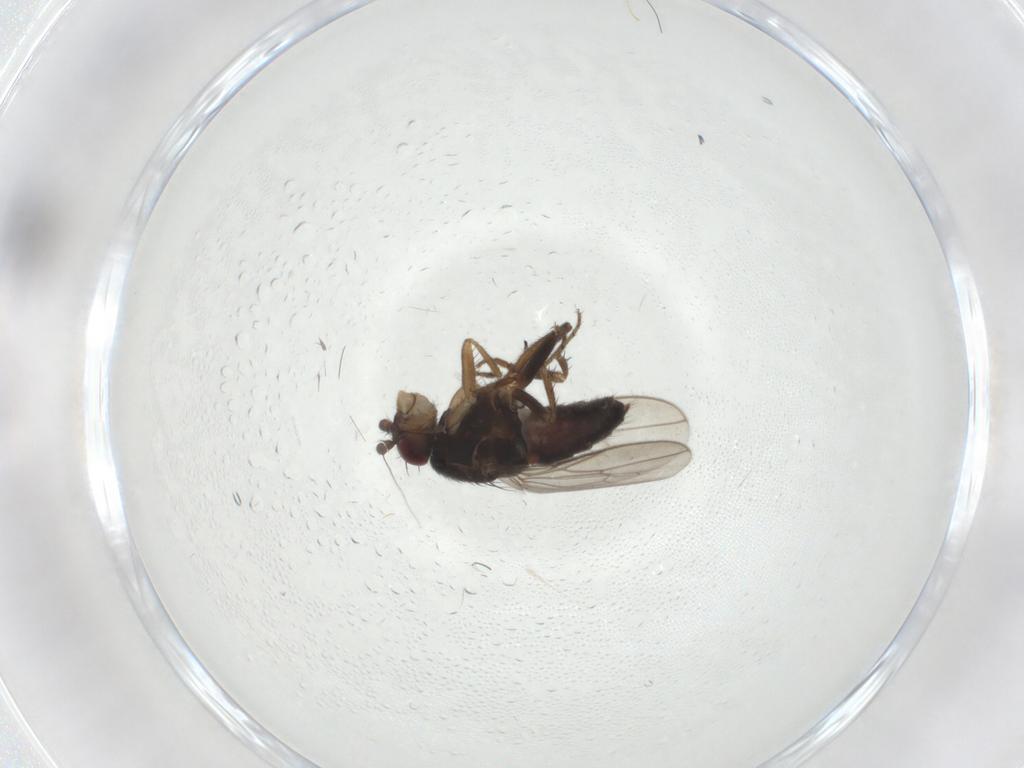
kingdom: Animalia
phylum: Arthropoda
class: Insecta
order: Diptera
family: Sphaeroceridae
